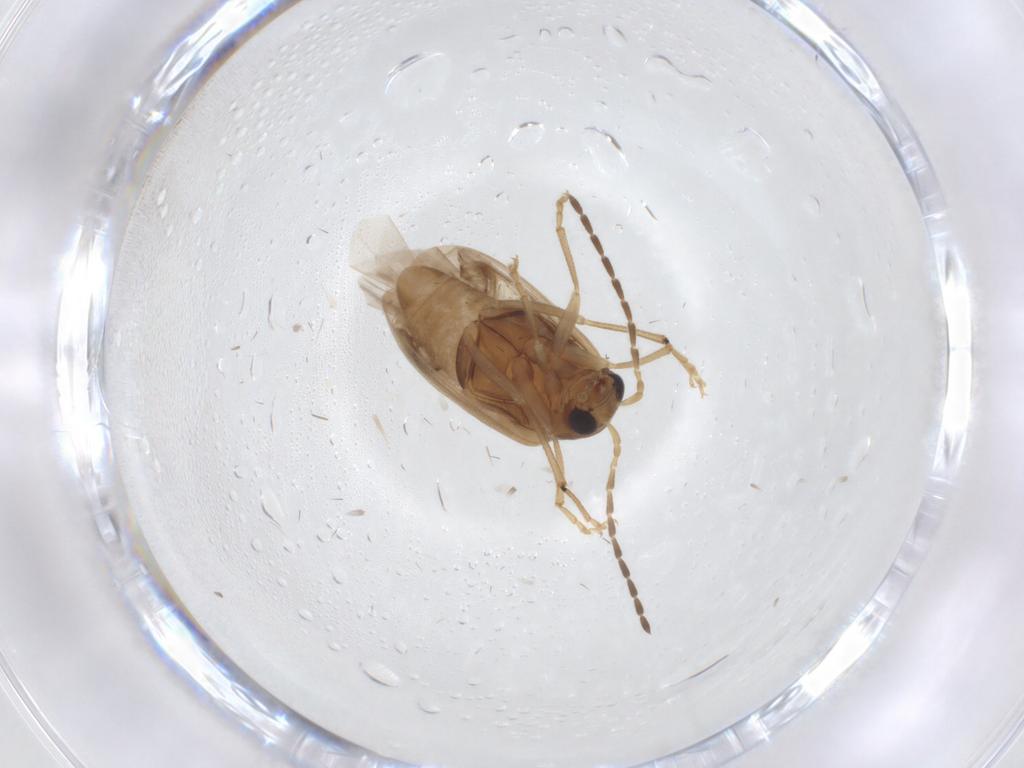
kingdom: Animalia
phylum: Arthropoda
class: Insecta
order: Coleoptera
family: Chrysomelidae
